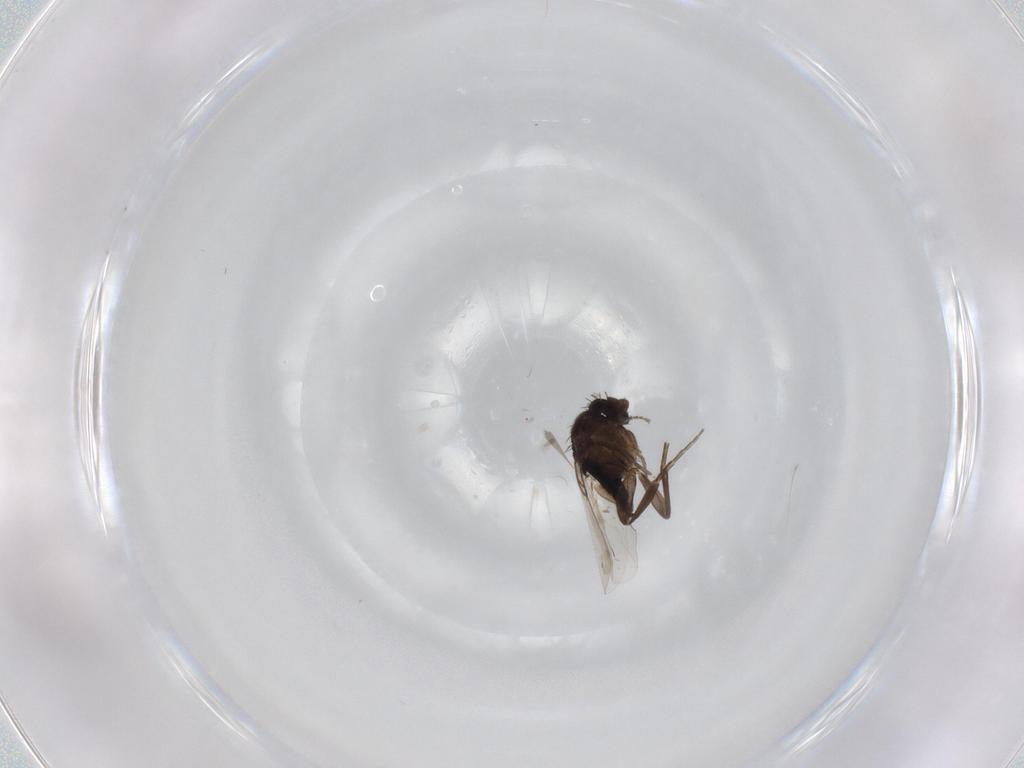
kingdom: Animalia
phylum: Arthropoda
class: Insecta
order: Diptera
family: Phoridae
